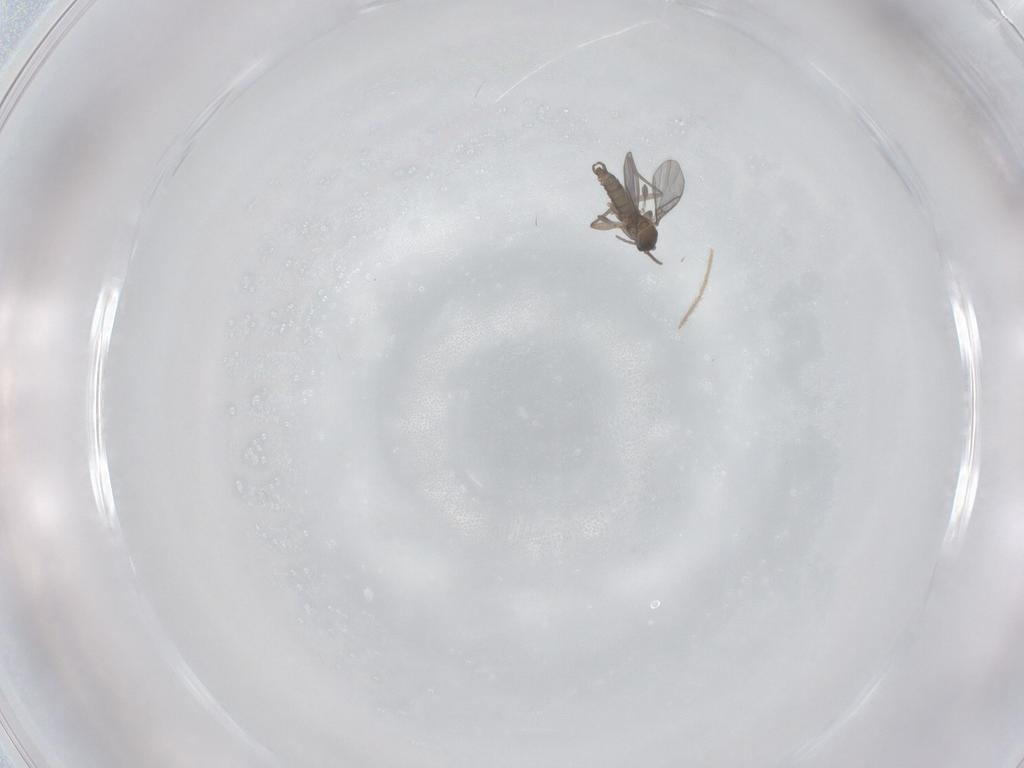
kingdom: Animalia
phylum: Arthropoda
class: Insecta
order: Diptera
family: Sciaridae
